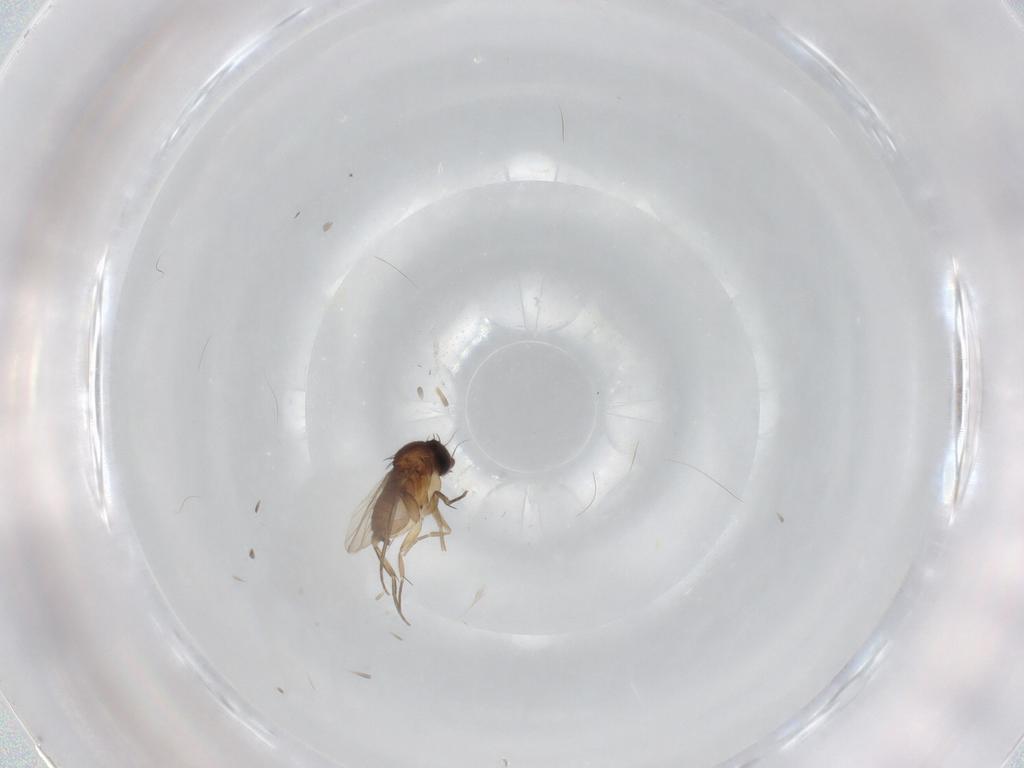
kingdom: Animalia
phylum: Arthropoda
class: Insecta
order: Diptera
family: Phoridae
